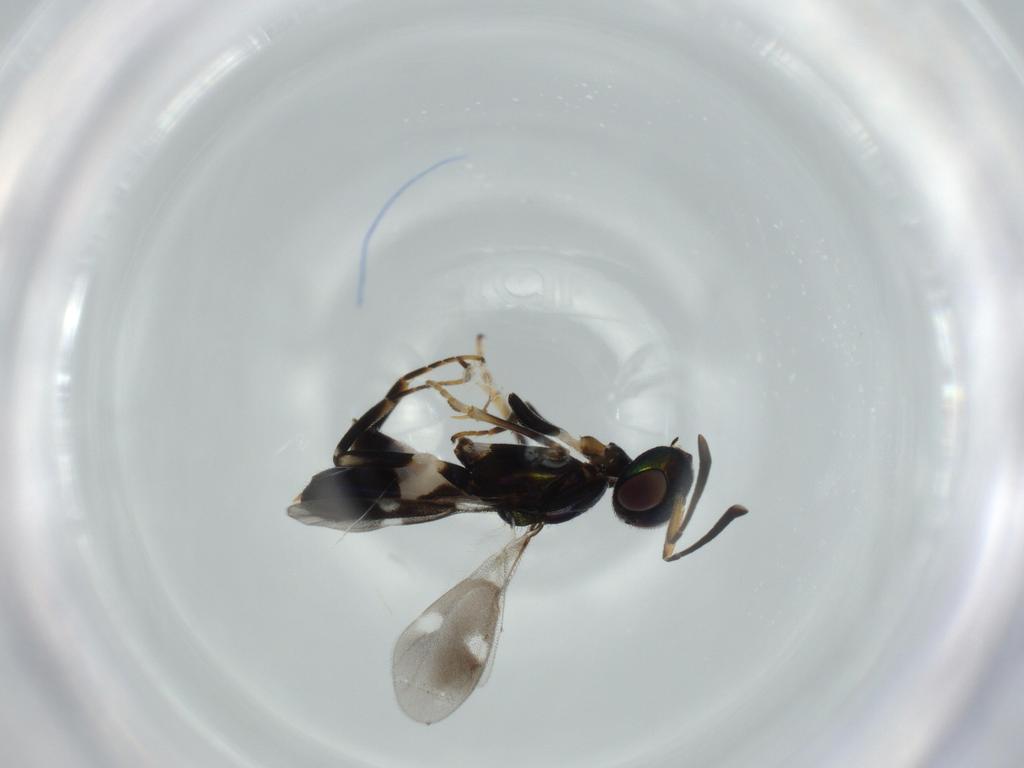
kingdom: Animalia
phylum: Arthropoda
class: Insecta
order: Hymenoptera
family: Eupelmidae
